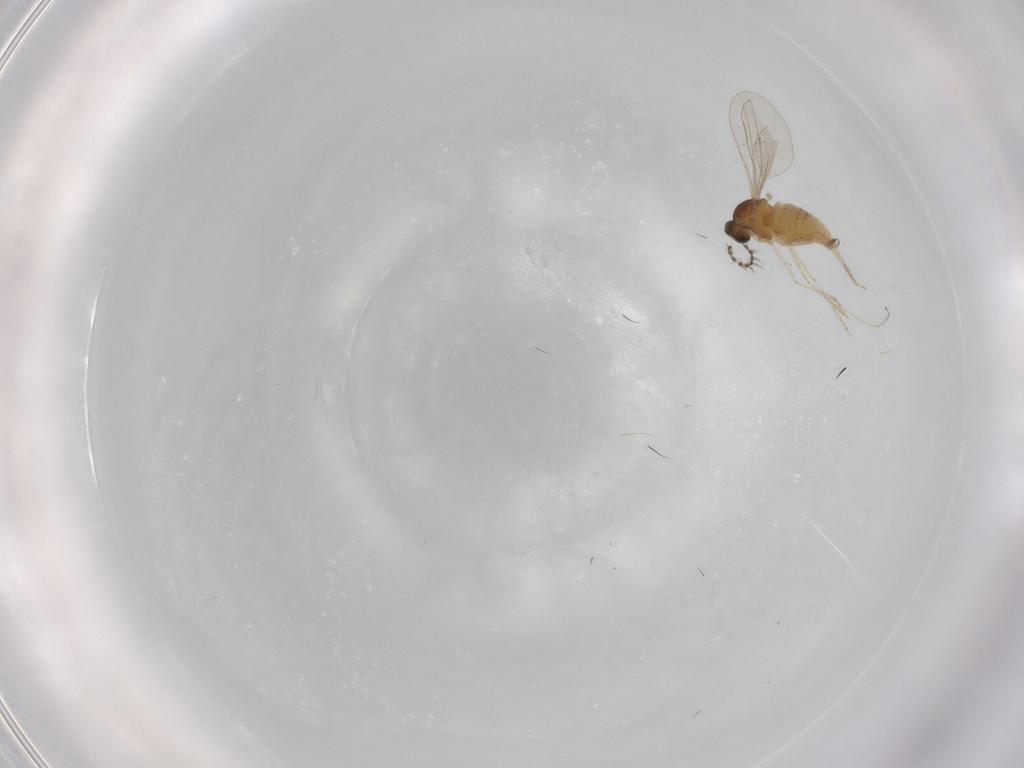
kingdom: Animalia
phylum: Arthropoda
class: Insecta
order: Diptera
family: Cecidomyiidae
